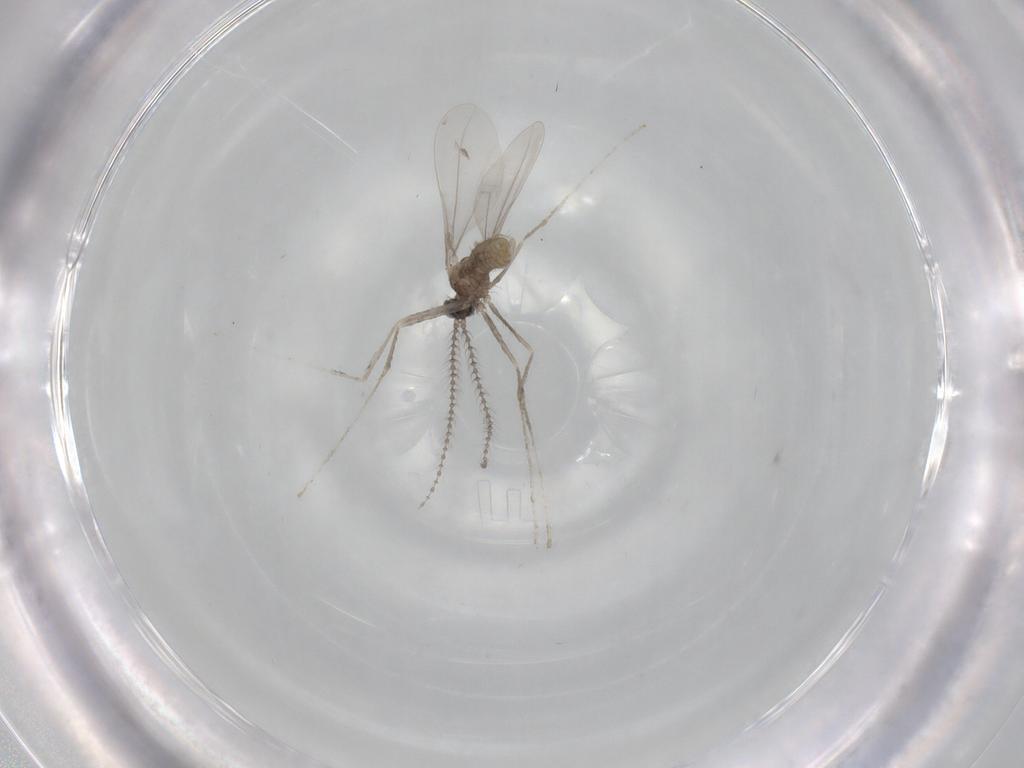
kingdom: Animalia
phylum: Arthropoda
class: Insecta
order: Diptera
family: Cecidomyiidae
